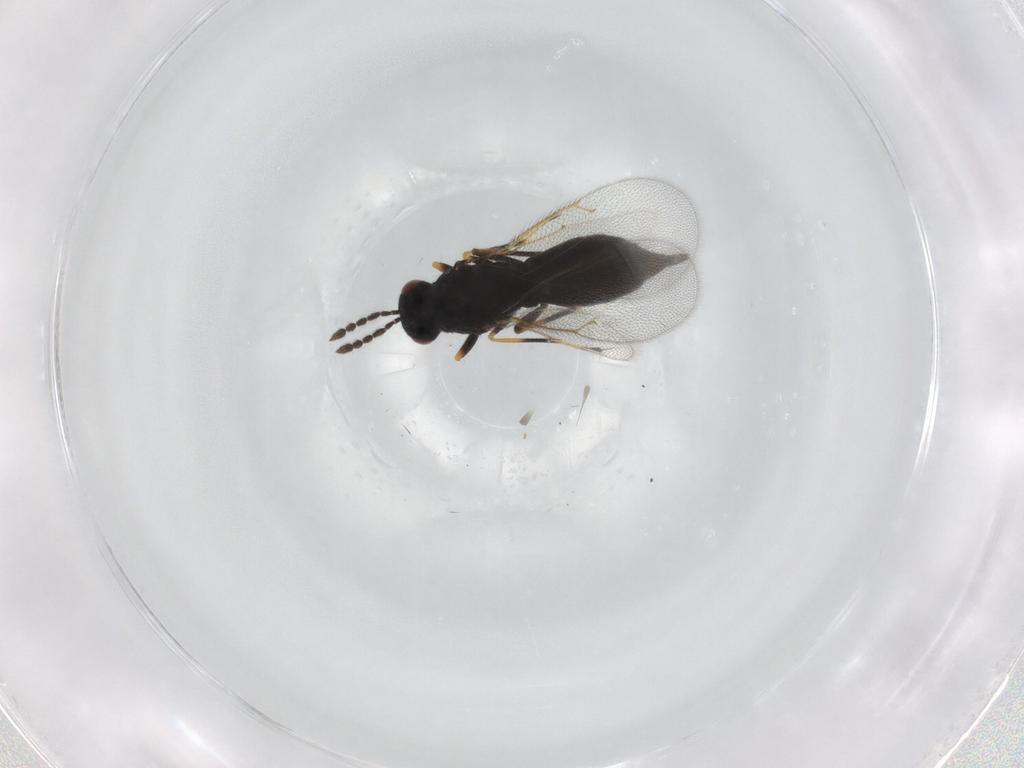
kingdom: Animalia
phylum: Arthropoda
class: Insecta
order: Hymenoptera
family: Eulophidae
